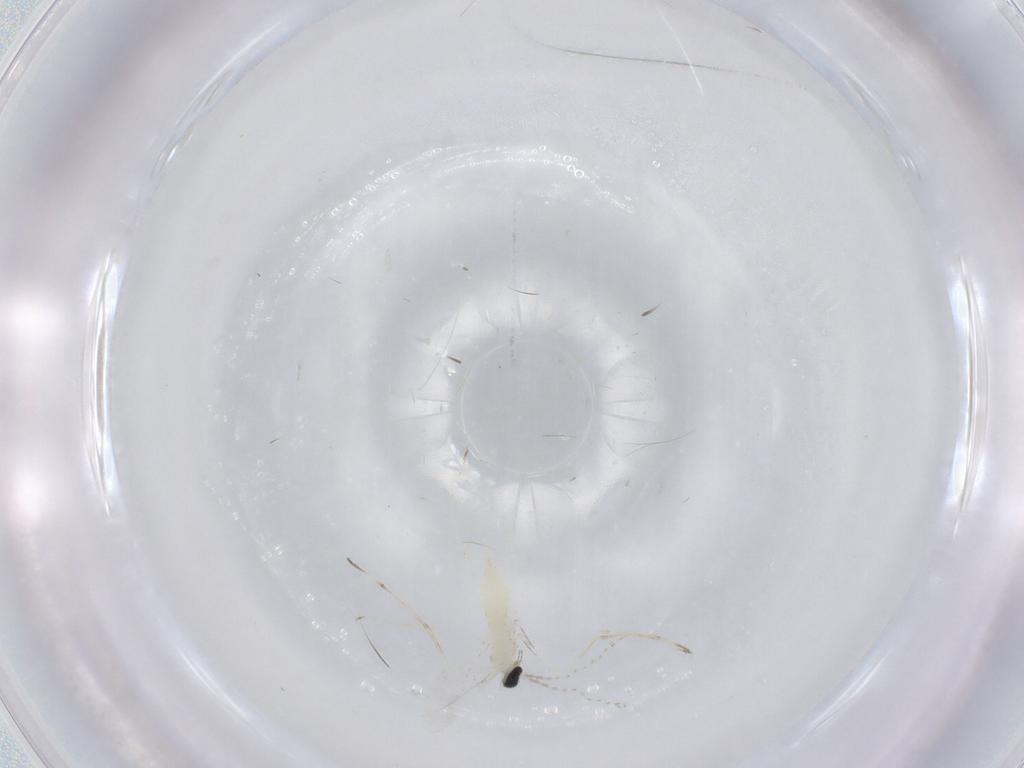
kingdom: Animalia
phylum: Arthropoda
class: Insecta
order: Diptera
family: Cecidomyiidae
